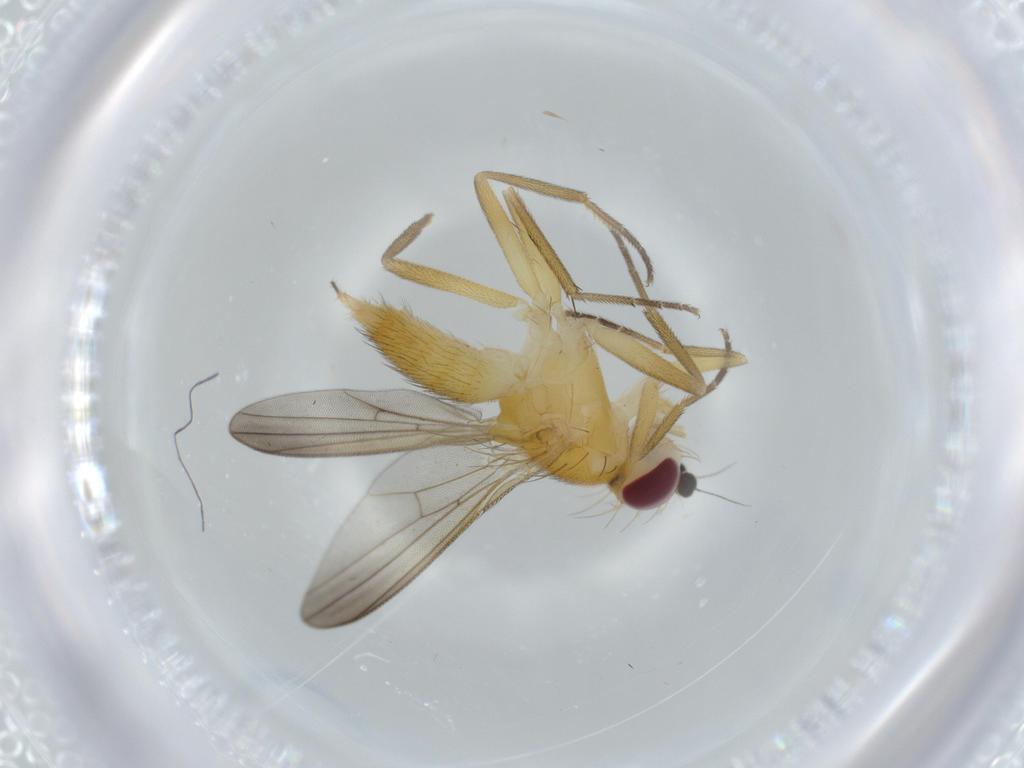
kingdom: Animalia
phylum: Arthropoda
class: Insecta
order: Diptera
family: Clusiidae
